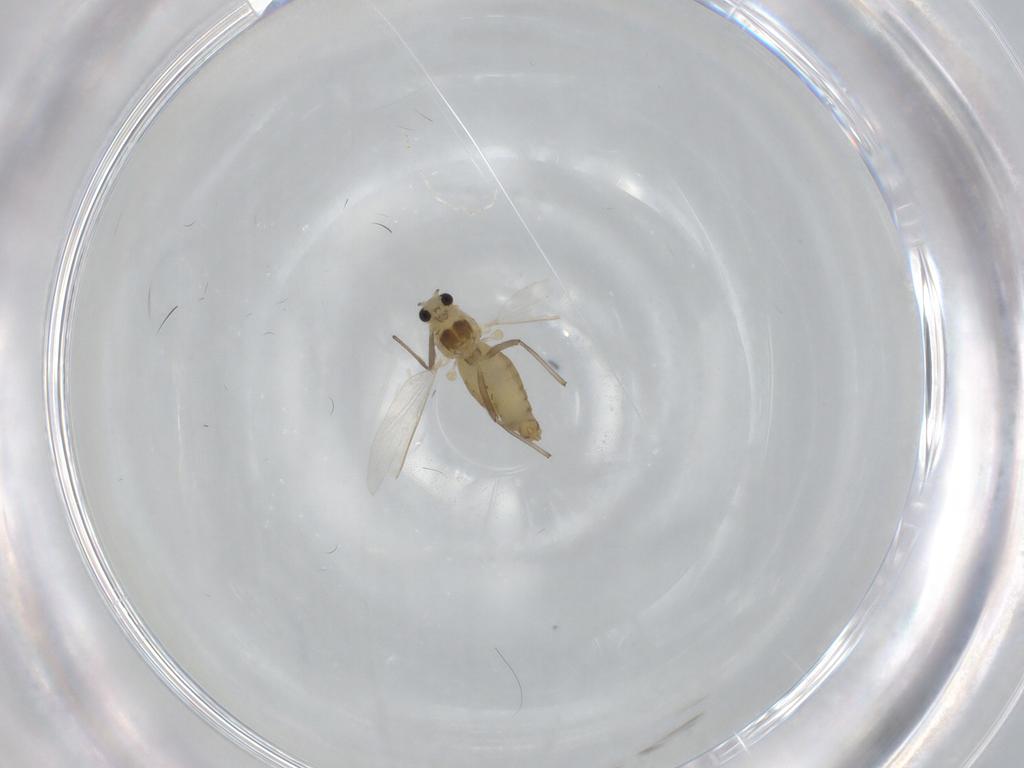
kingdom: Animalia
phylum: Arthropoda
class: Insecta
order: Diptera
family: Chironomidae
